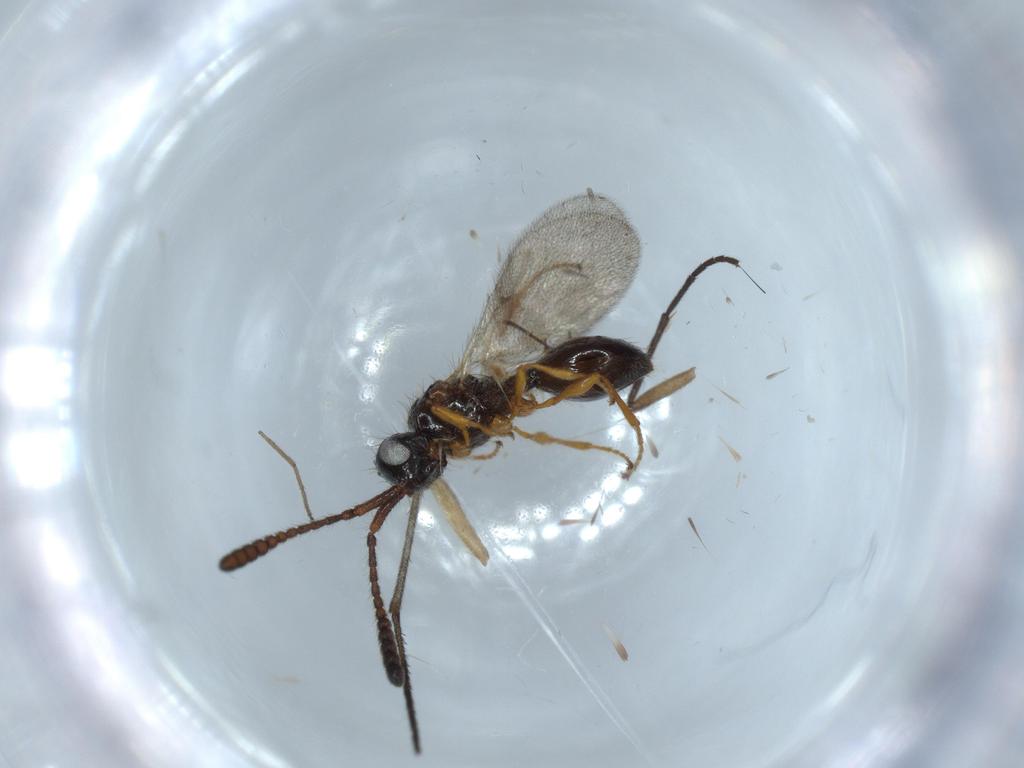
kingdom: Animalia
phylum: Arthropoda
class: Insecta
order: Hymenoptera
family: Diapriidae
